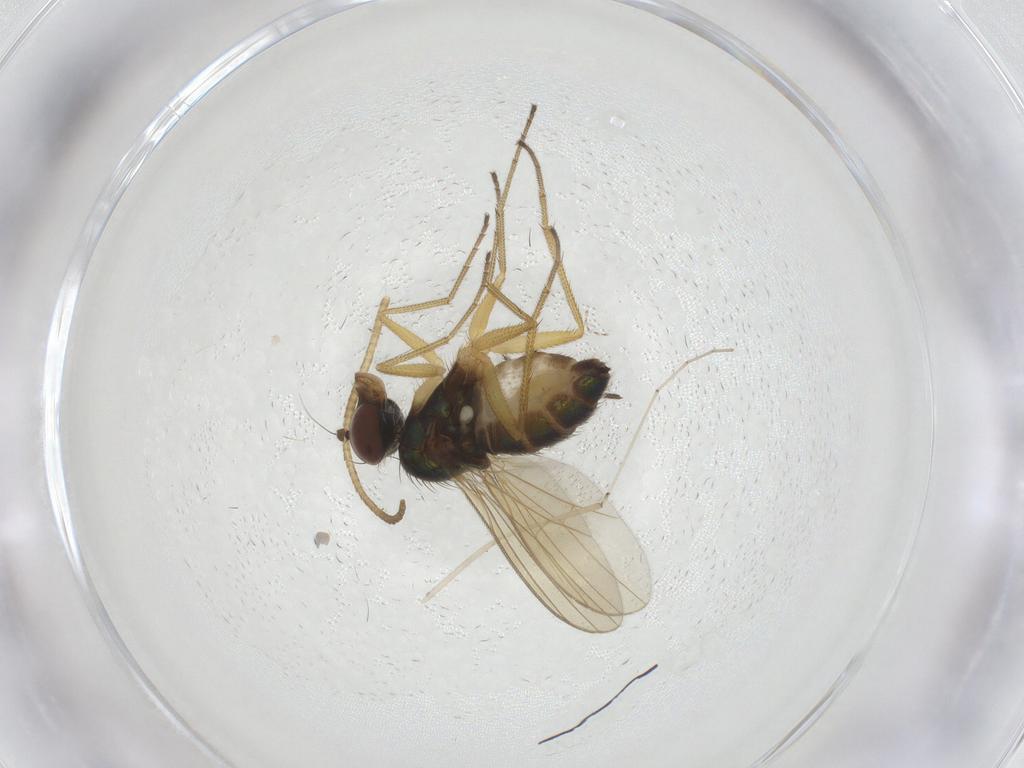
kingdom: Animalia
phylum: Arthropoda
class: Insecta
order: Diptera
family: Dolichopodidae
